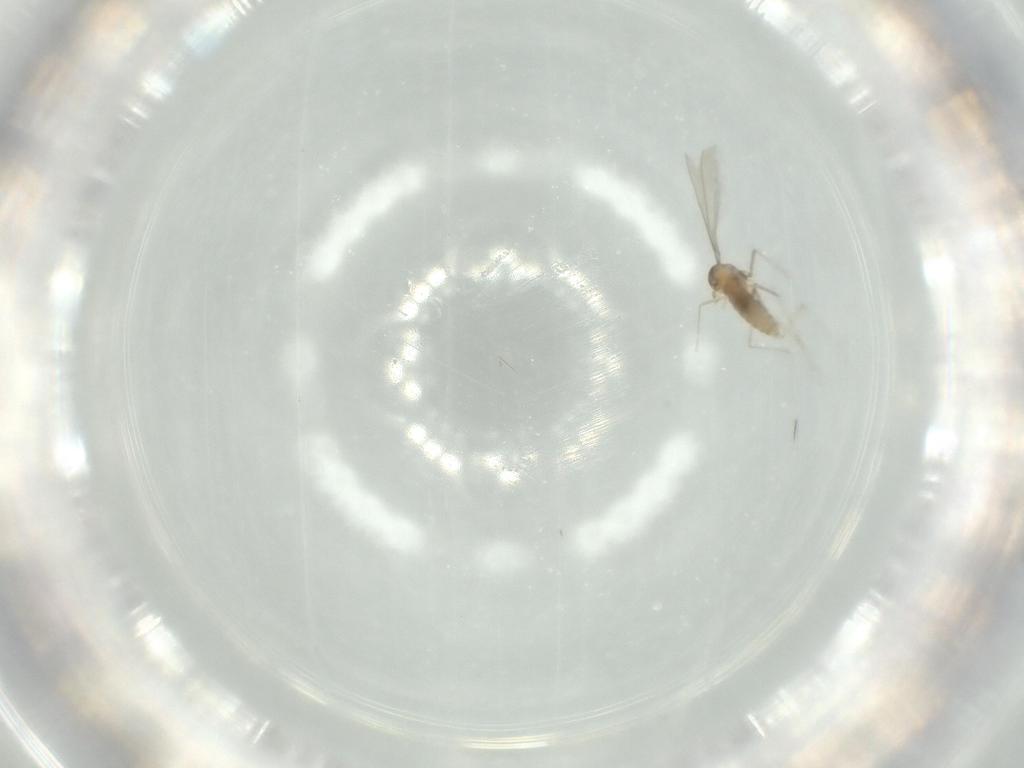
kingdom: Animalia
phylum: Arthropoda
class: Insecta
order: Diptera
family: Cecidomyiidae
